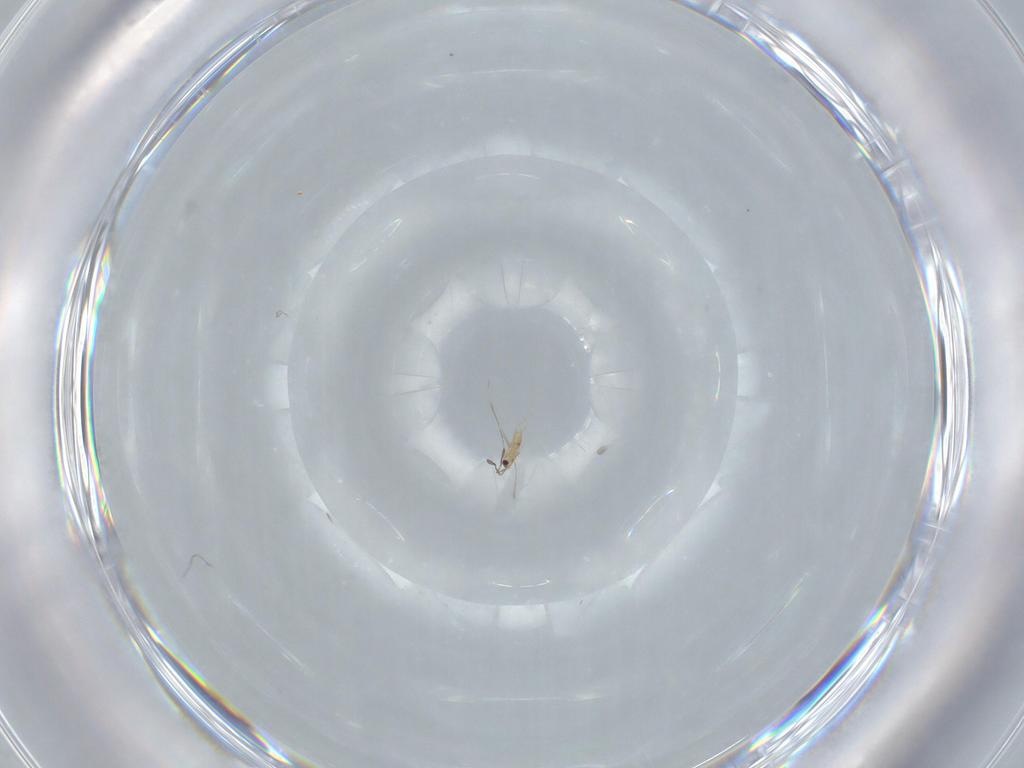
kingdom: Animalia
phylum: Arthropoda
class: Insecta
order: Hymenoptera
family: Mymaridae
